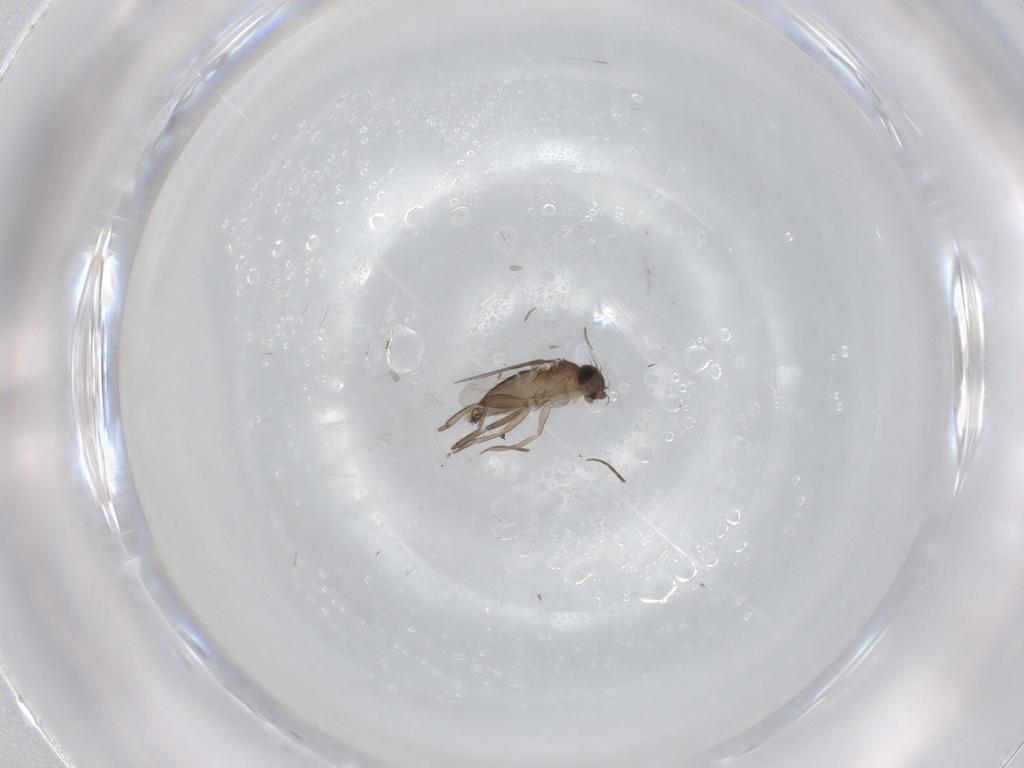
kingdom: Animalia
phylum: Arthropoda
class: Insecta
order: Diptera
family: Phoridae
